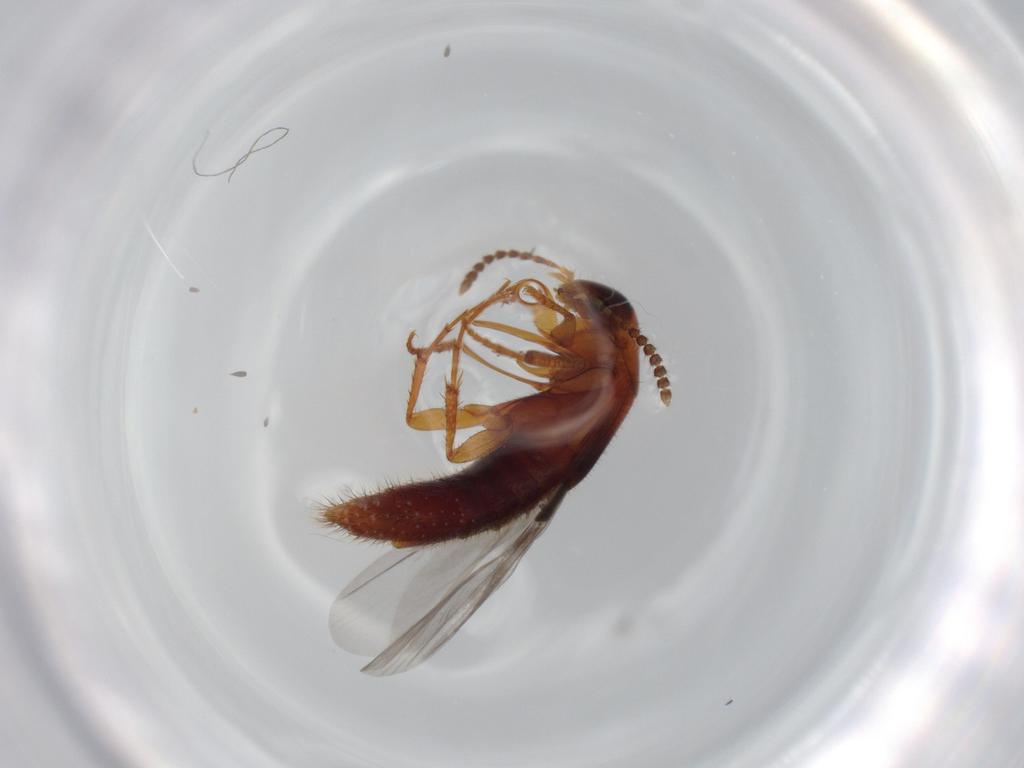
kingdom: Animalia
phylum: Arthropoda
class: Insecta
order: Coleoptera
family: Staphylinidae
